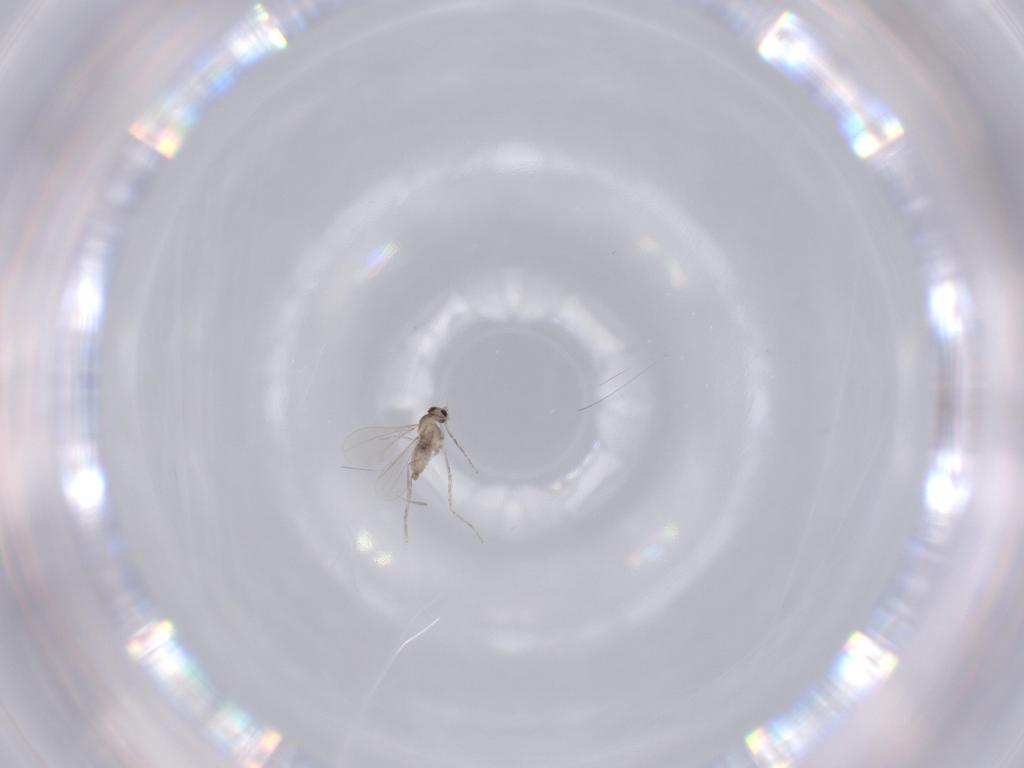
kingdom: Animalia
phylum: Arthropoda
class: Insecta
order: Diptera
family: Cecidomyiidae
